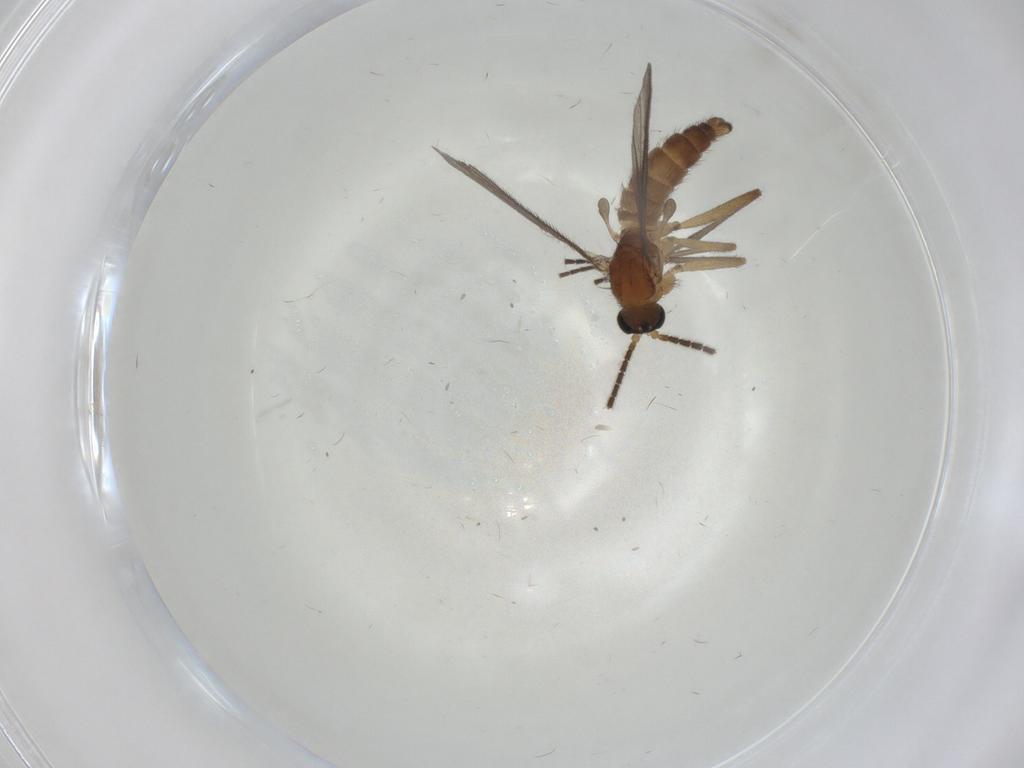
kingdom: Animalia
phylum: Arthropoda
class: Insecta
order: Diptera
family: Sciaridae
